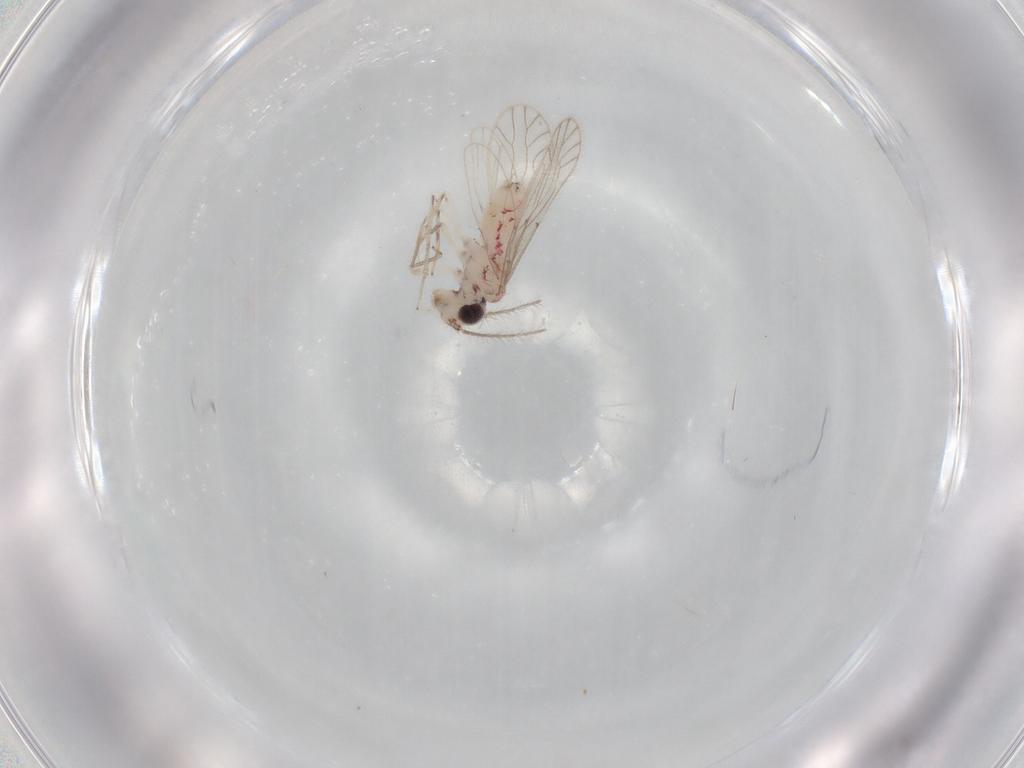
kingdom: Animalia
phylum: Arthropoda
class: Insecta
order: Psocodea
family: Caeciliusidae
